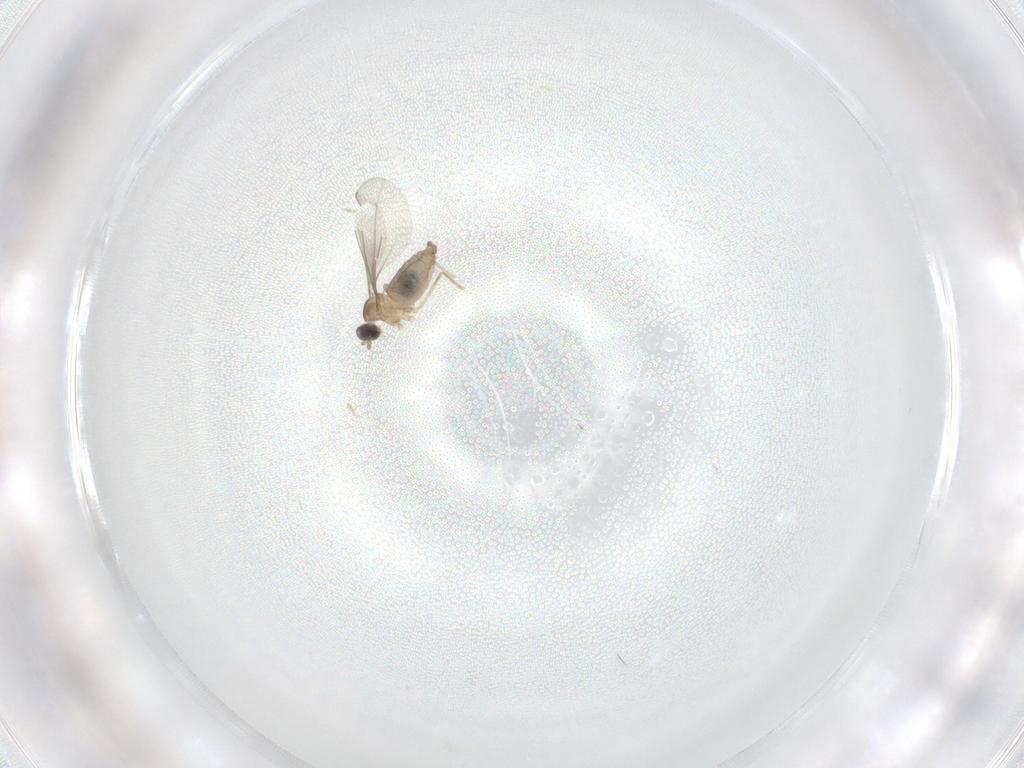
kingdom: Animalia
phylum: Arthropoda
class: Insecta
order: Diptera
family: Cecidomyiidae
